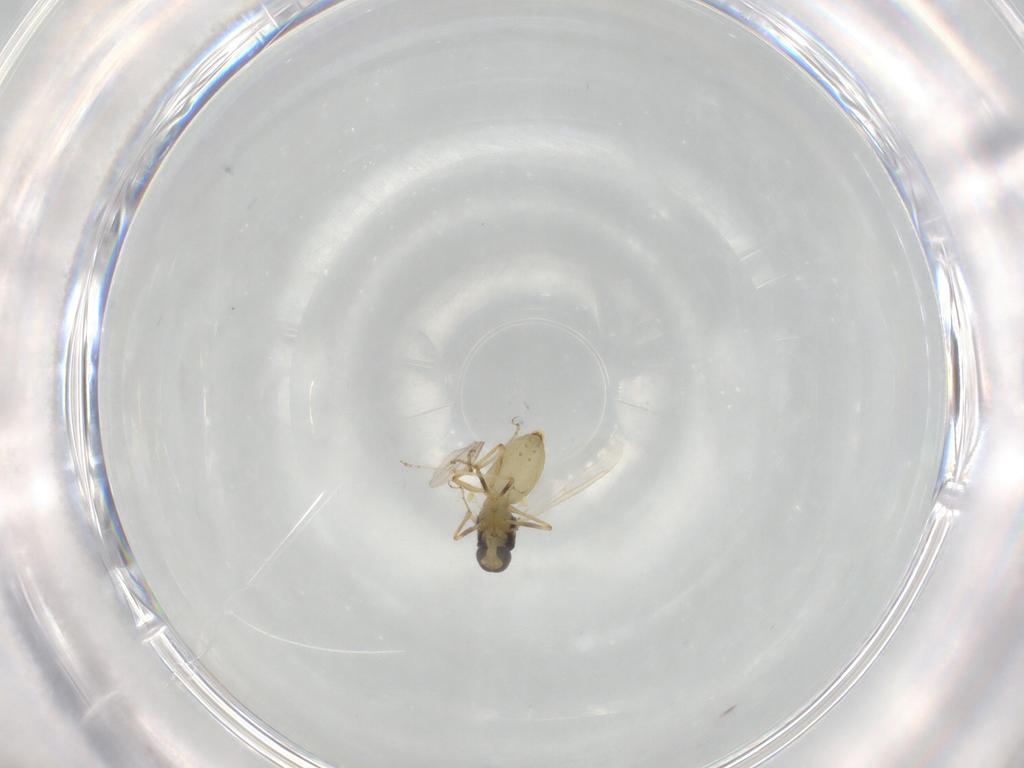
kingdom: Animalia
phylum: Arthropoda
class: Insecta
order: Diptera
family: Ceratopogonidae
